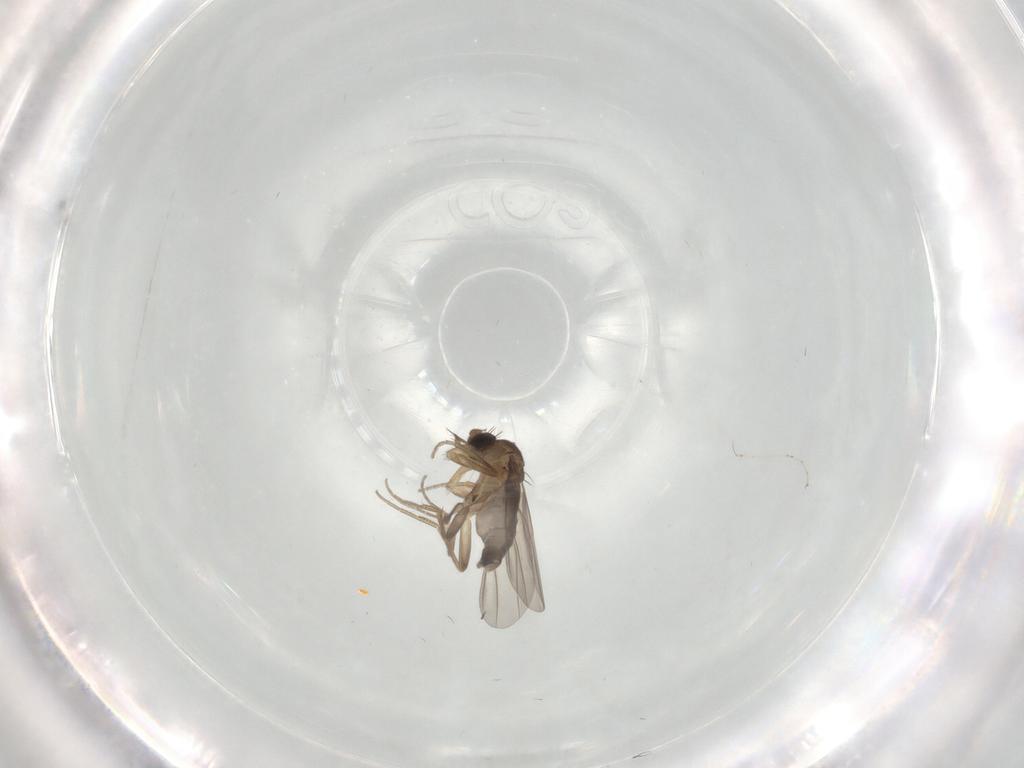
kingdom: Animalia
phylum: Arthropoda
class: Insecta
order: Diptera
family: Phoridae
